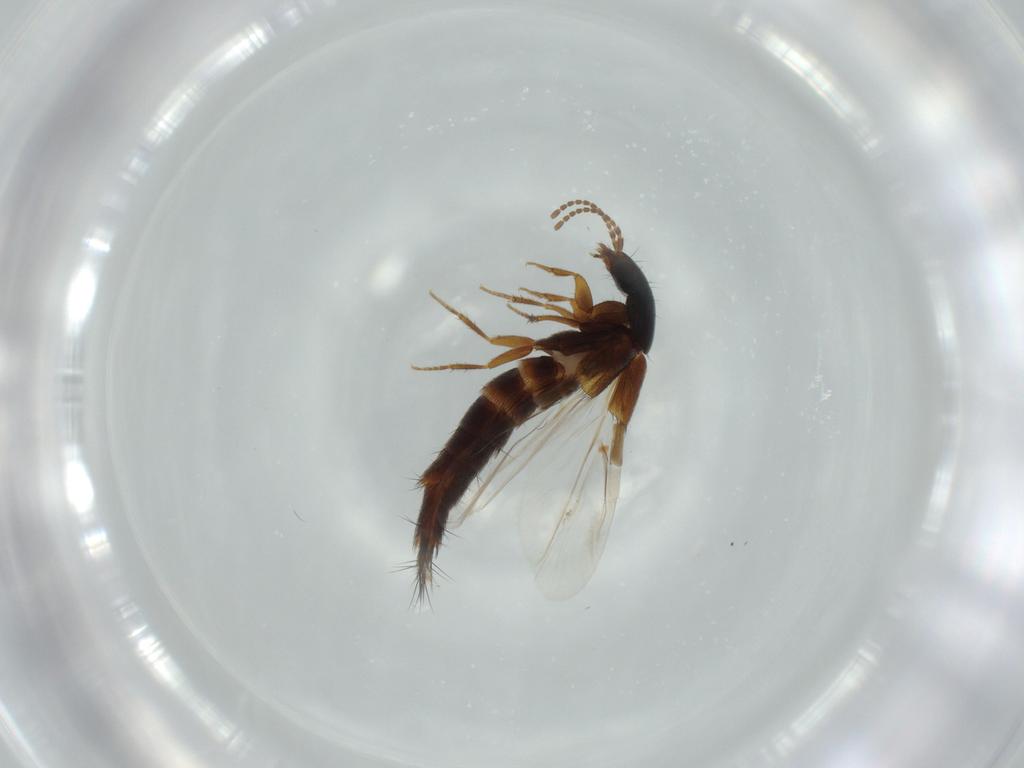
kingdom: Animalia
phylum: Arthropoda
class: Insecta
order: Coleoptera
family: Staphylinidae
